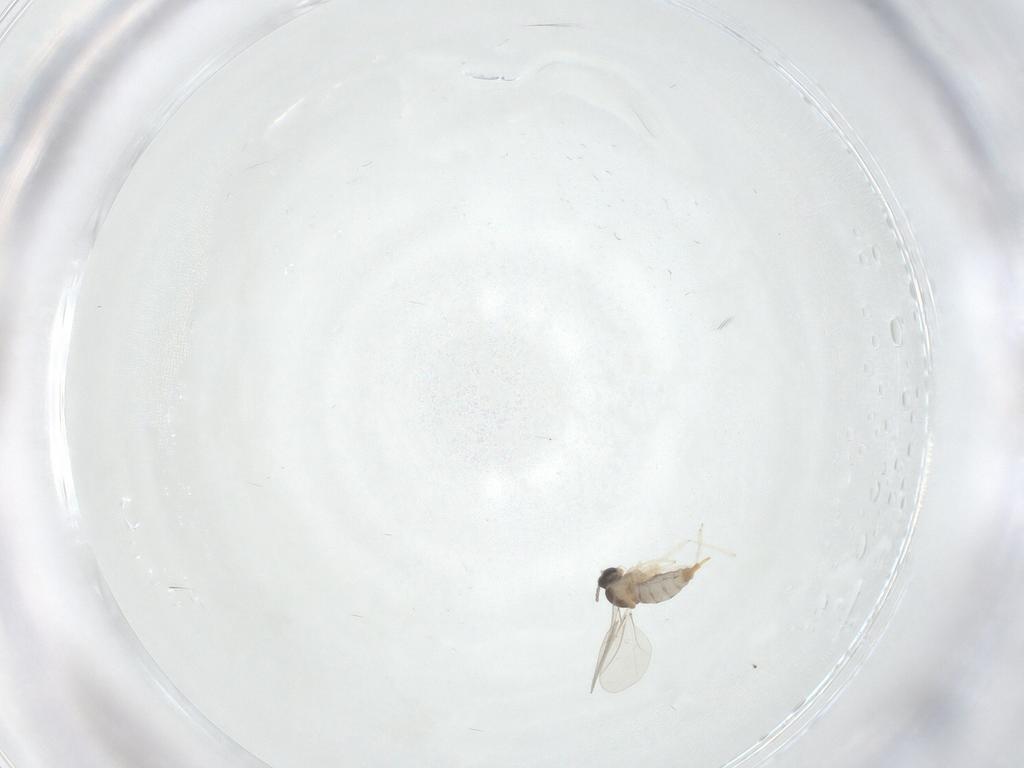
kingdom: Animalia
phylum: Arthropoda
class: Insecta
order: Diptera
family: Cecidomyiidae
